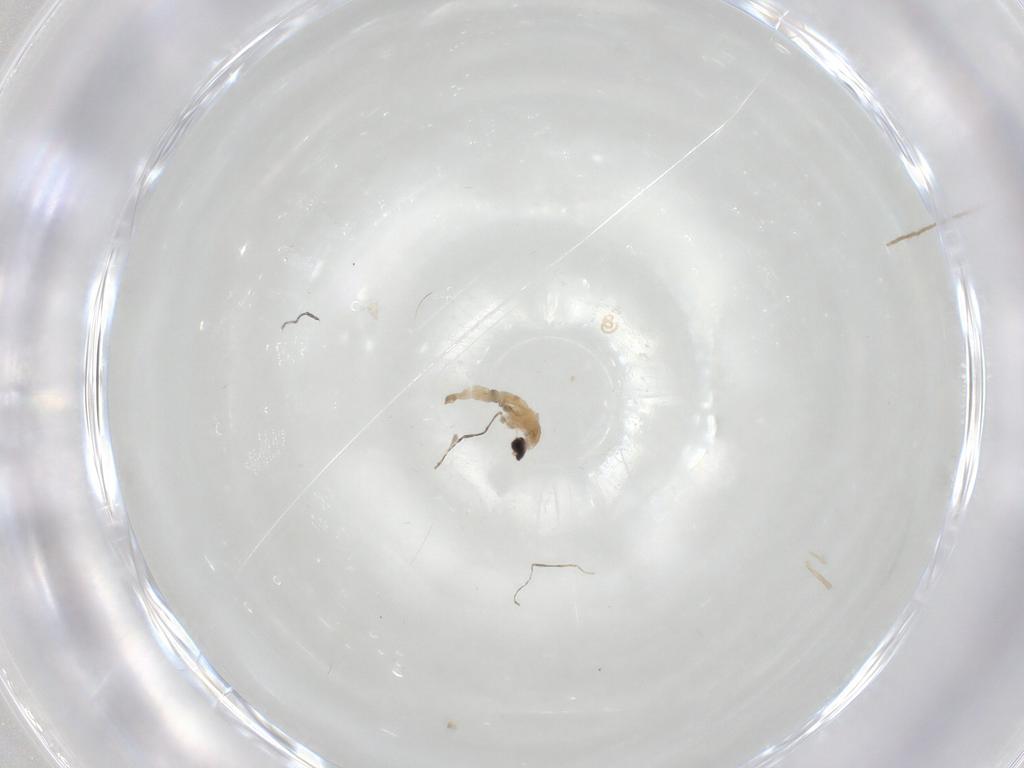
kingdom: Animalia
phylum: Arthropoda
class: Insecta
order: Diptera
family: Cecidomyiidae
